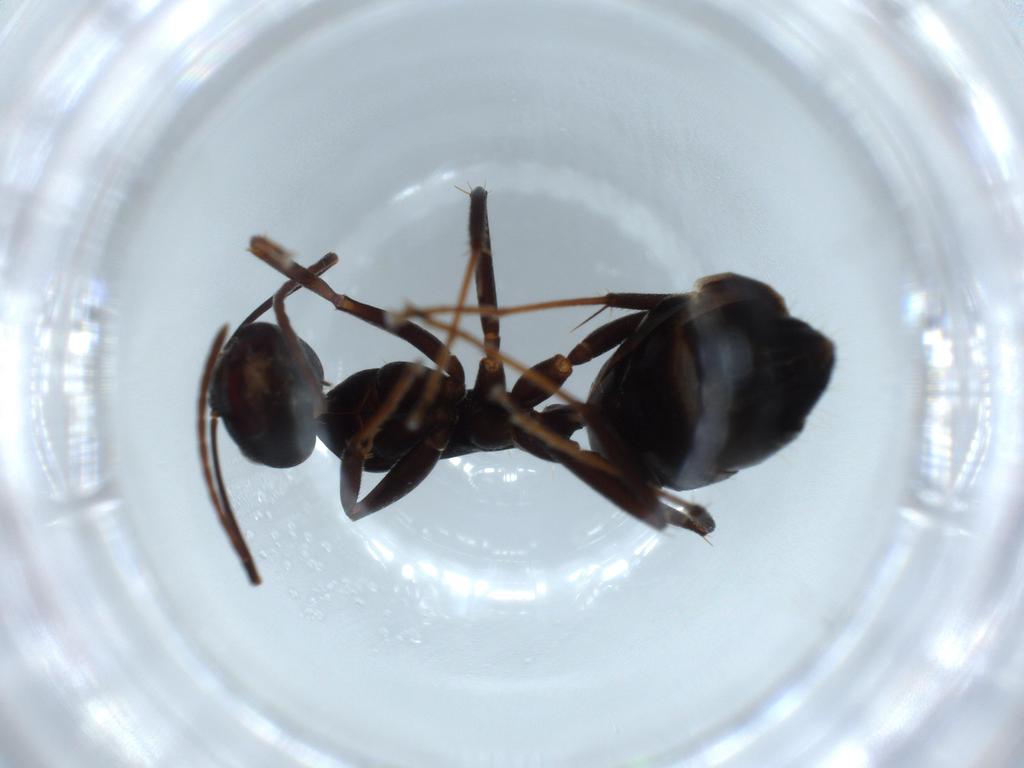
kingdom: Animalia
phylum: Arthropoda
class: Insecta
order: Hymenoptera
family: Formicidae
